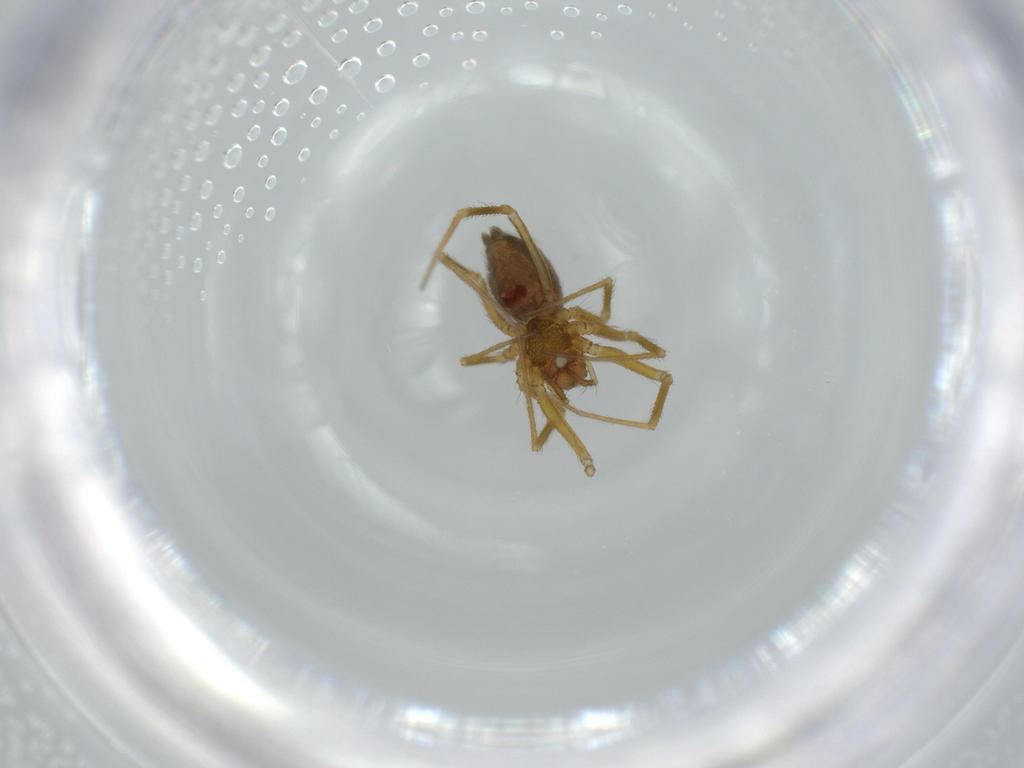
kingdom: Animalia
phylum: Arthropoda
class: Arachnida
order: Araneae
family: Linyphiidae
